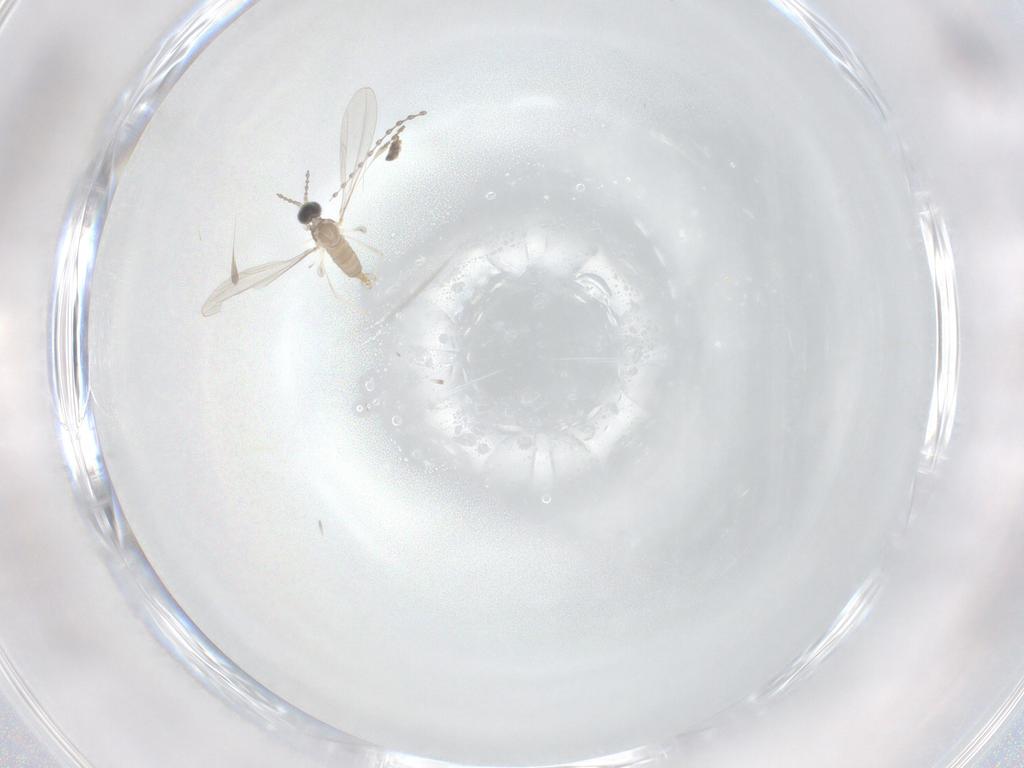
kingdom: Animalia
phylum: Arthropoda
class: Insecta
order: Diptera
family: Cecidomyiidae
